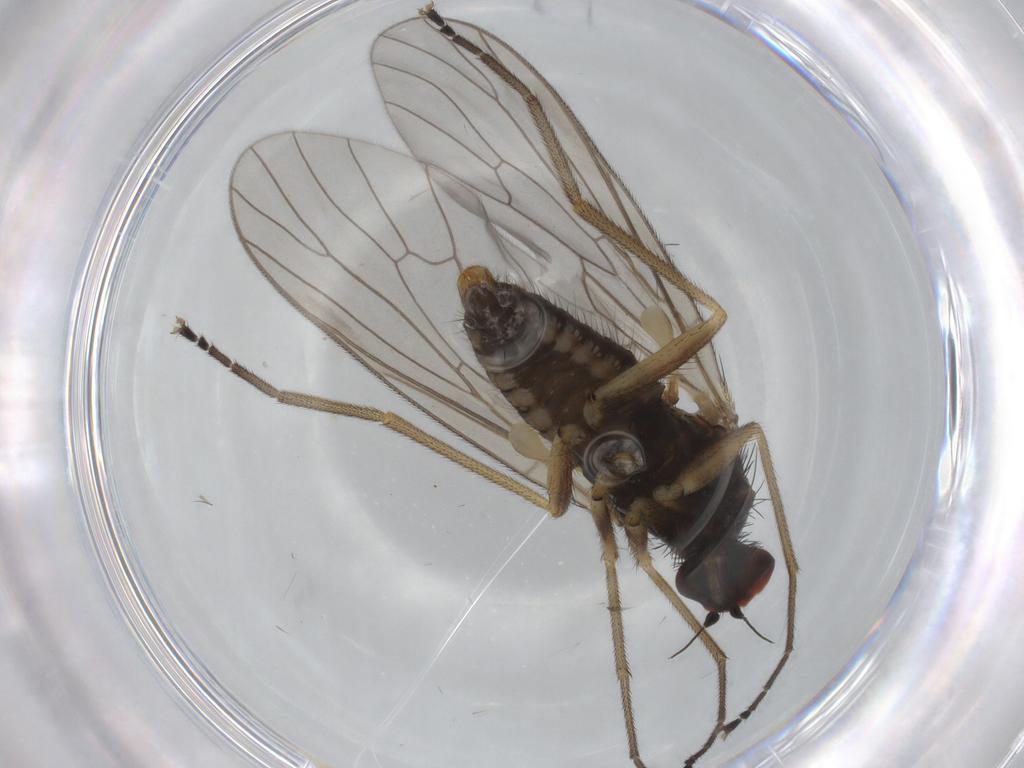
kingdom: Animalia
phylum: Arthropoda
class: Insecta
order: Diptera
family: Brachystomatidae
